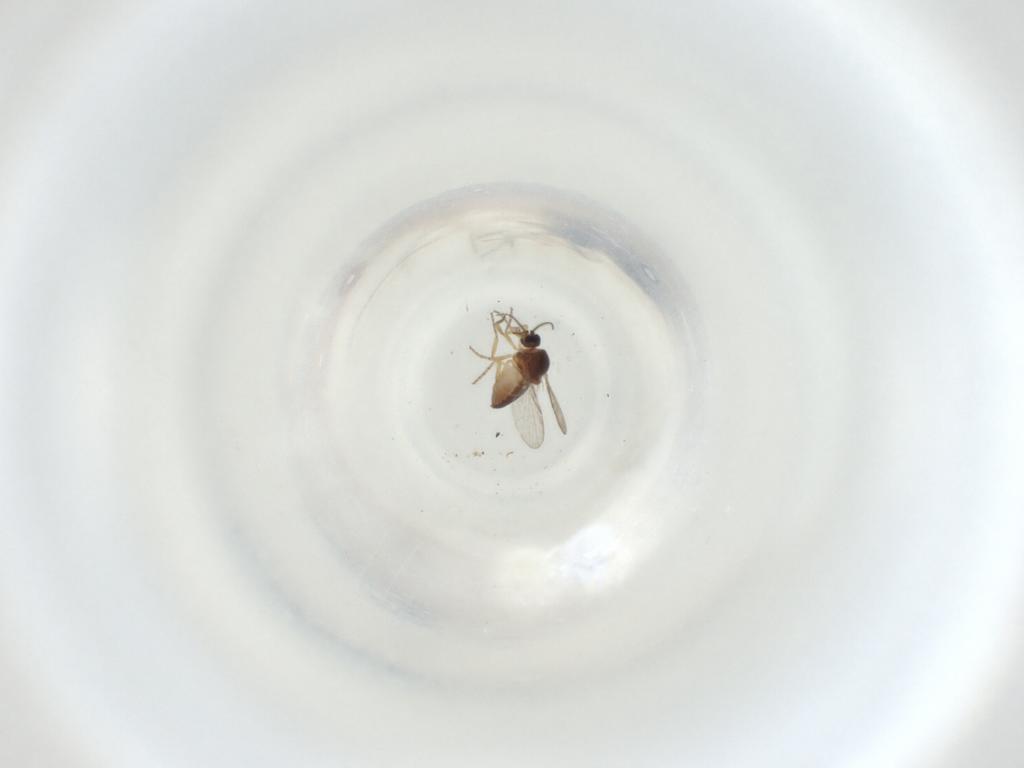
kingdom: Animalia
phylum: Arthropoda
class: Insecta
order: Diptera
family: Ceratopogonidae
